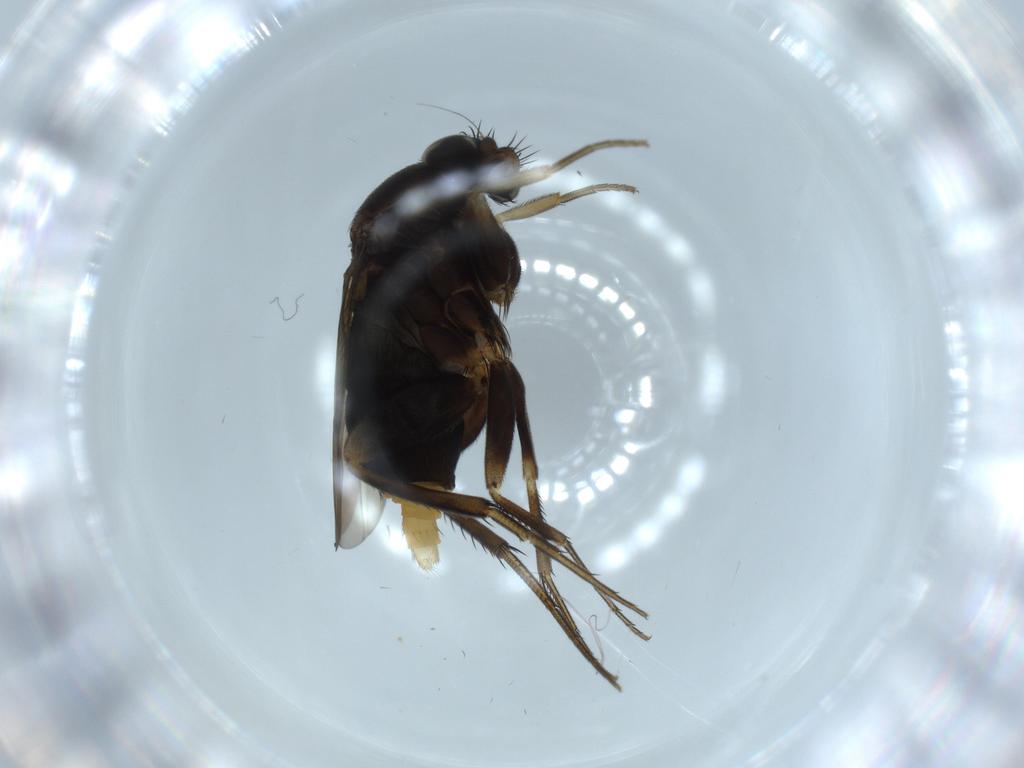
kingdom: Animalia
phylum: Arthropoda
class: Insecta
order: Diptera
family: Phoridae
